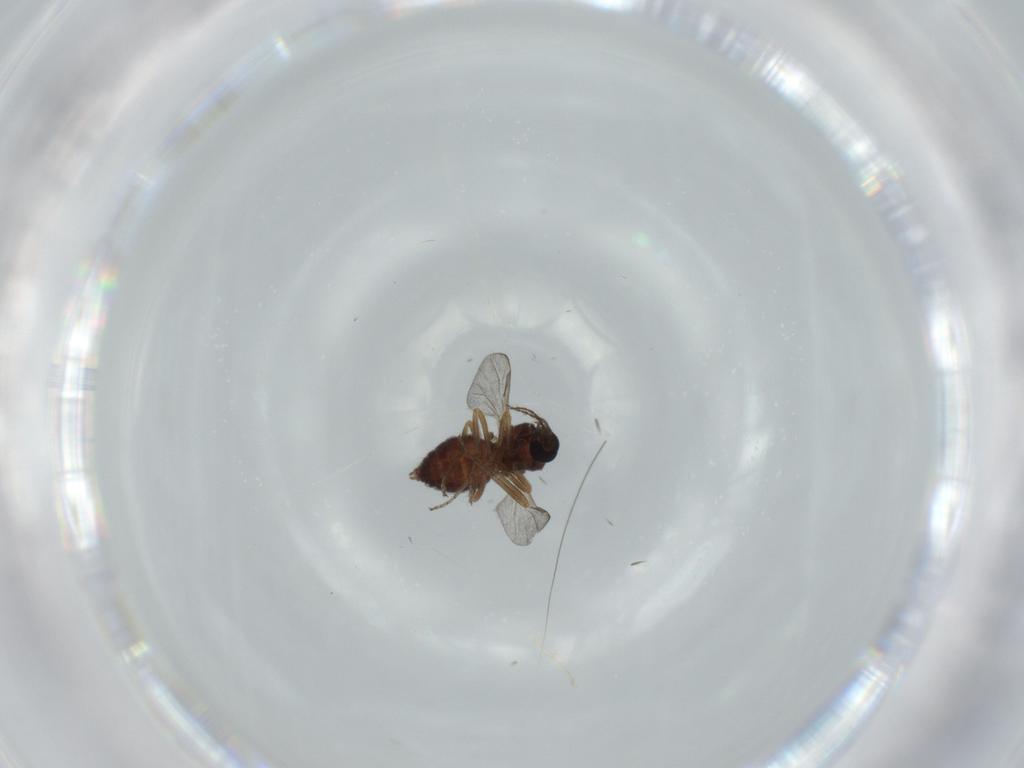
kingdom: Animalia
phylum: Arthropoda
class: Insecta
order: Diptera
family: Ceratopogonidae
